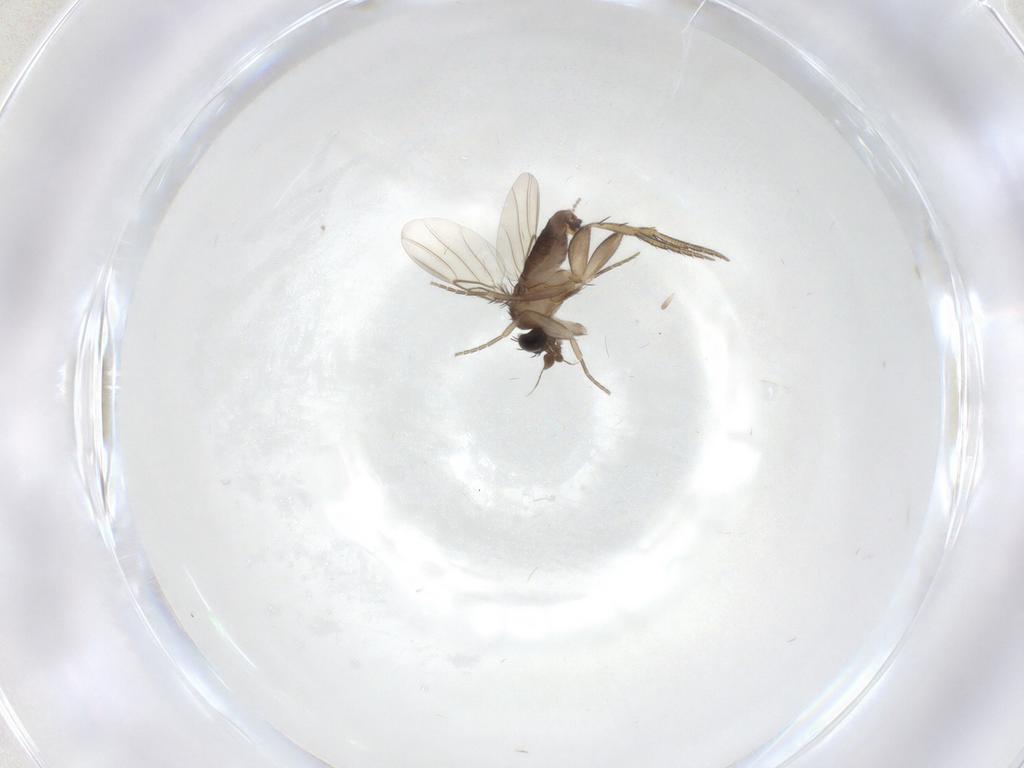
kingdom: Animalia
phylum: Arthropoda
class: Insecta
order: Diptera
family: Phoridae
